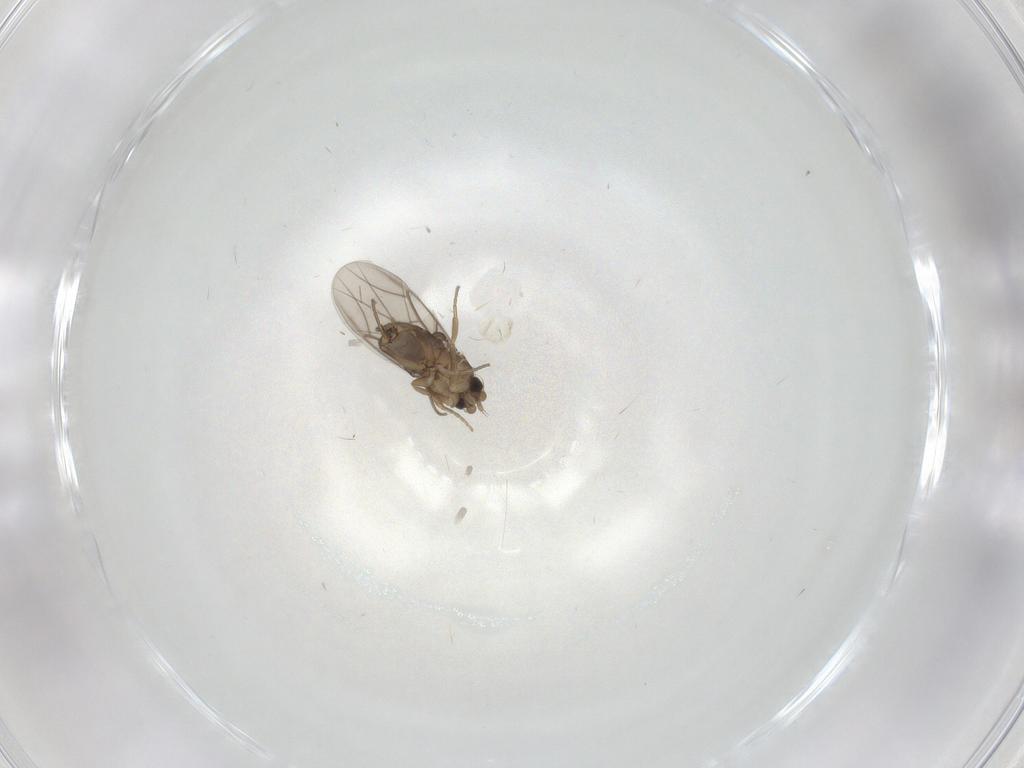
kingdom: Animalia
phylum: Arthropoda
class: Insecta
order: Diptera
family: Phoridae
